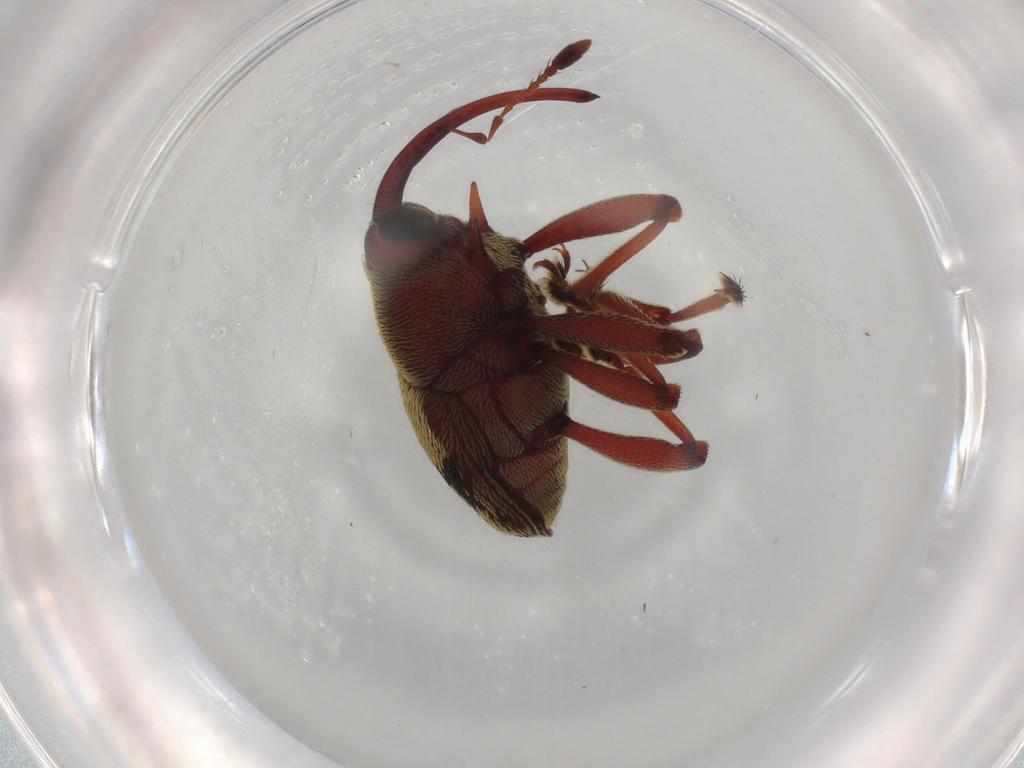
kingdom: Animalia
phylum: Arthropoda
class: Insecta
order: Coleoptera
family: Curculionidae
